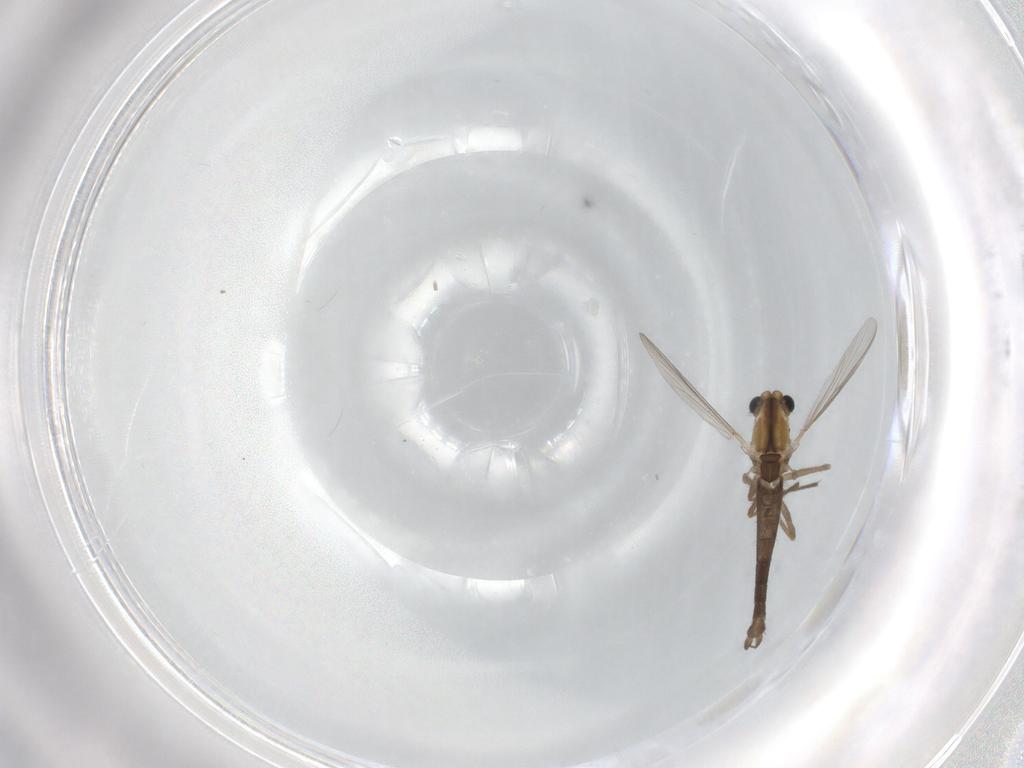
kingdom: Animalia
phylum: Arthropoda
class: Insecta
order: Diptera
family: Chironomidae
